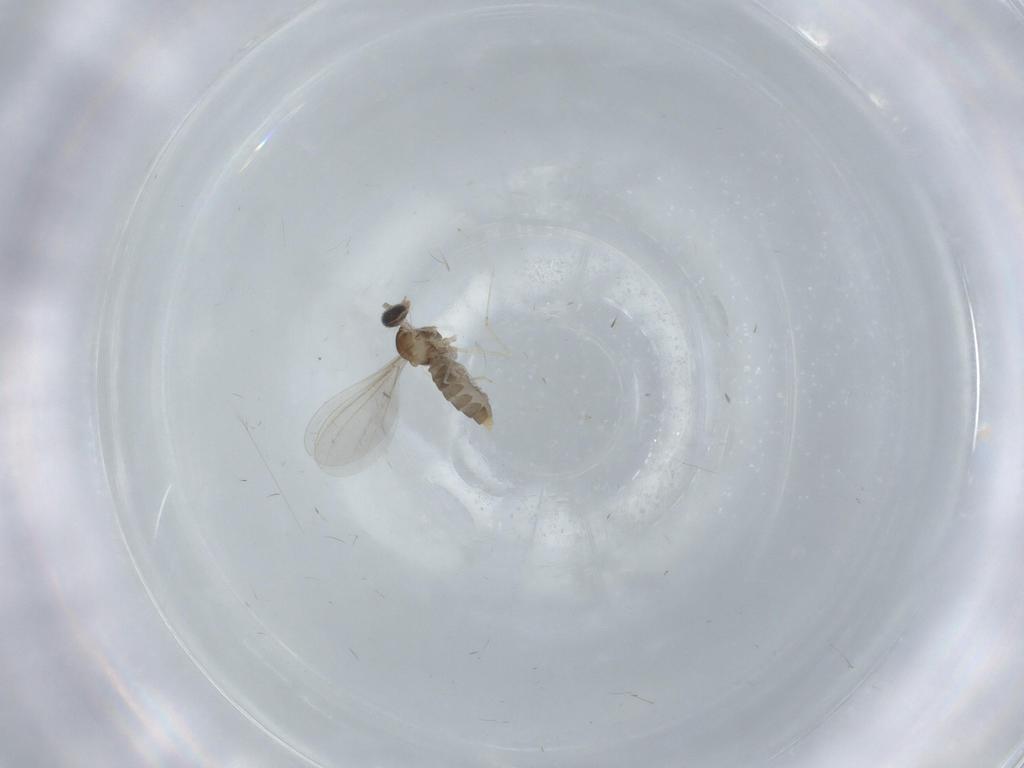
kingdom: Animalia
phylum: Arthropoda
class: Insecta
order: Diptera
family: Cecidomyiidae
